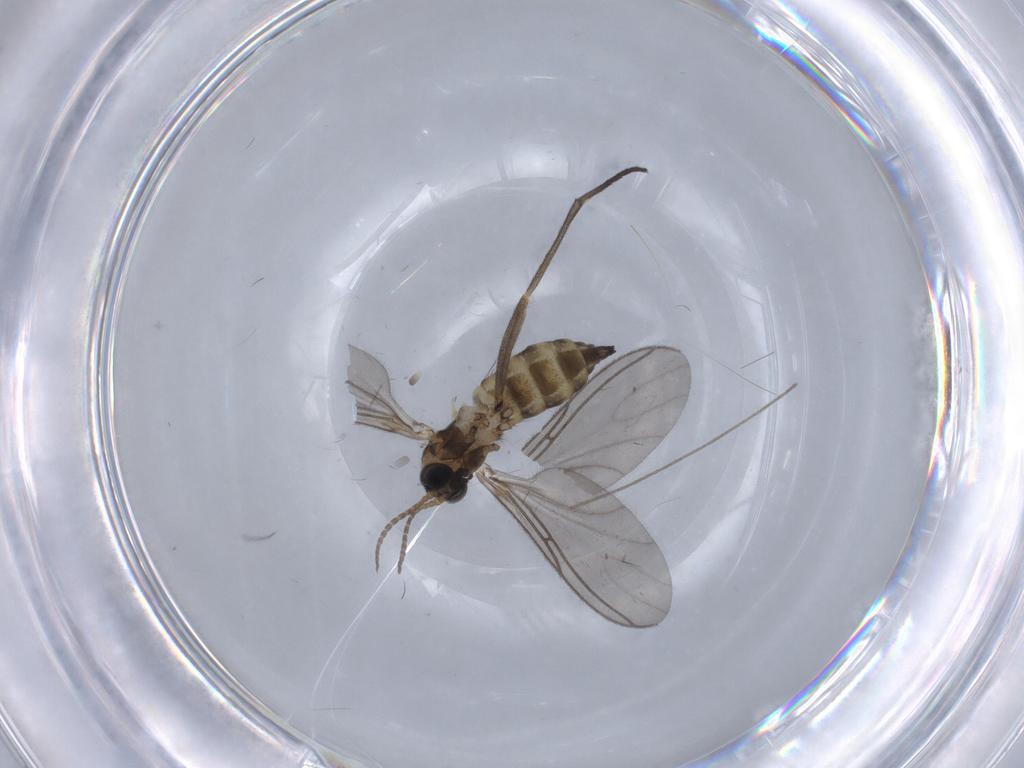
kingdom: Animalia
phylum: Arthropoda
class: Insecta
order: Diptera
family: Sciaridae
